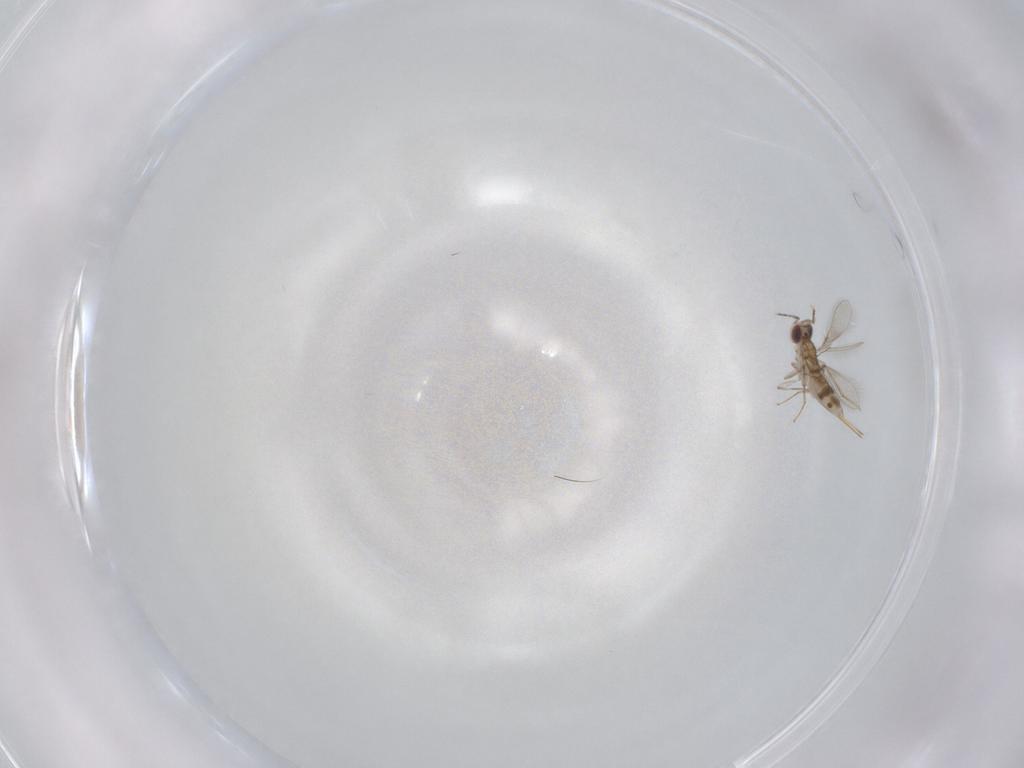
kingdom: Animalia
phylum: Arthropoda
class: Insecta
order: Hymenoptera
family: Mymaridae
